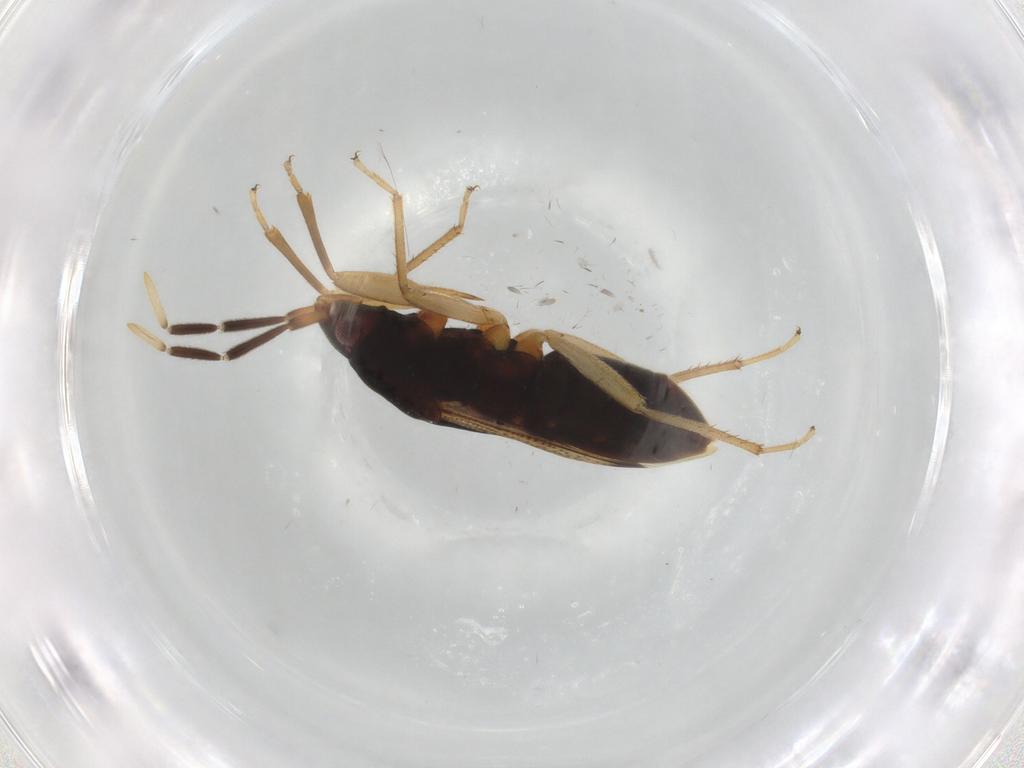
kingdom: Animalia
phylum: Arthropoda
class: Insecta
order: Hemiptera
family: Rhyparochromidae
